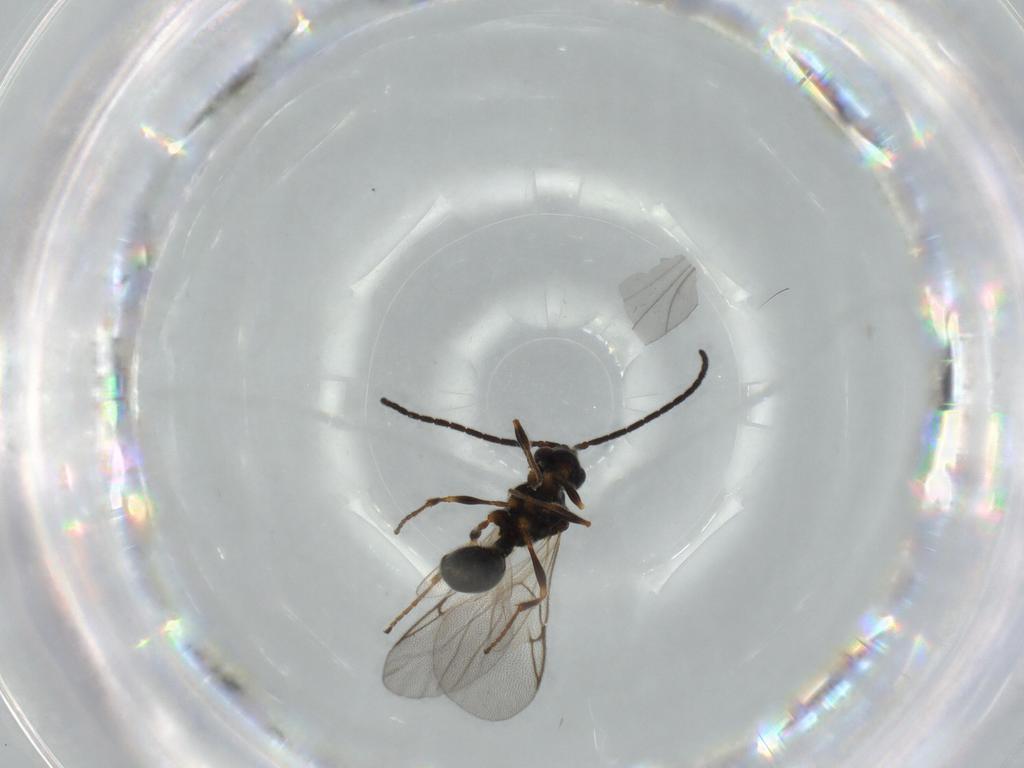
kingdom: Animalia
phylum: Arthropoda
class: Insecta
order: Hymenoptera
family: Diapriidae
